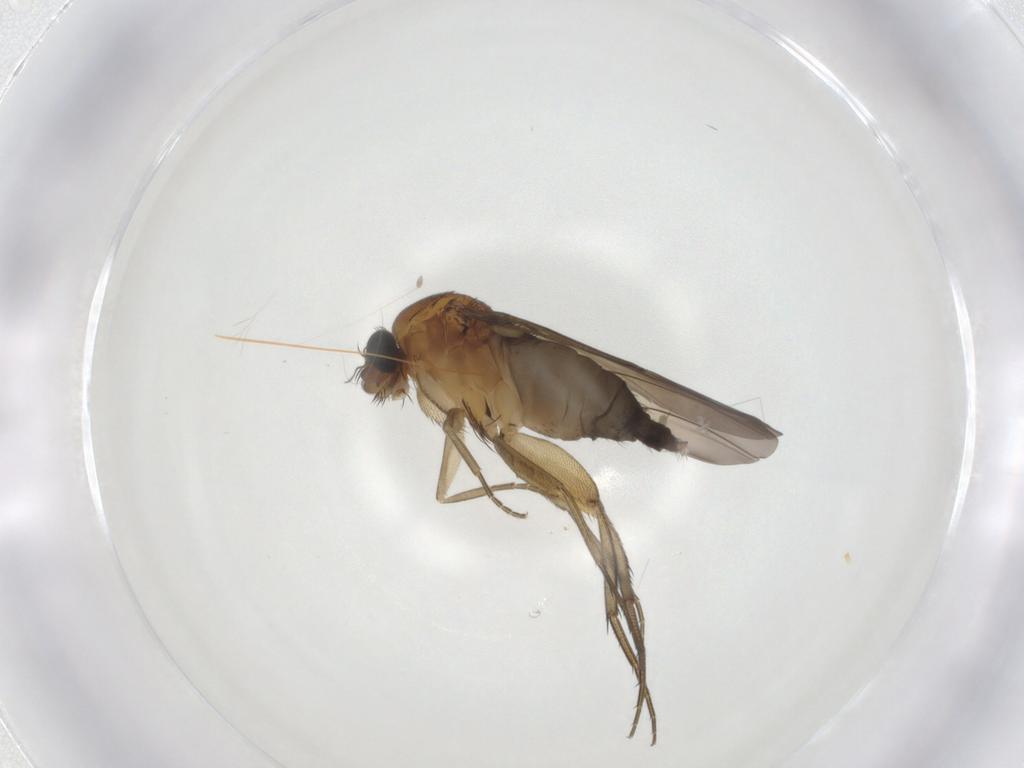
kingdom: Animalia
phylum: Arthropoda
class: Insecta
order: Diptera
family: Phoridae
